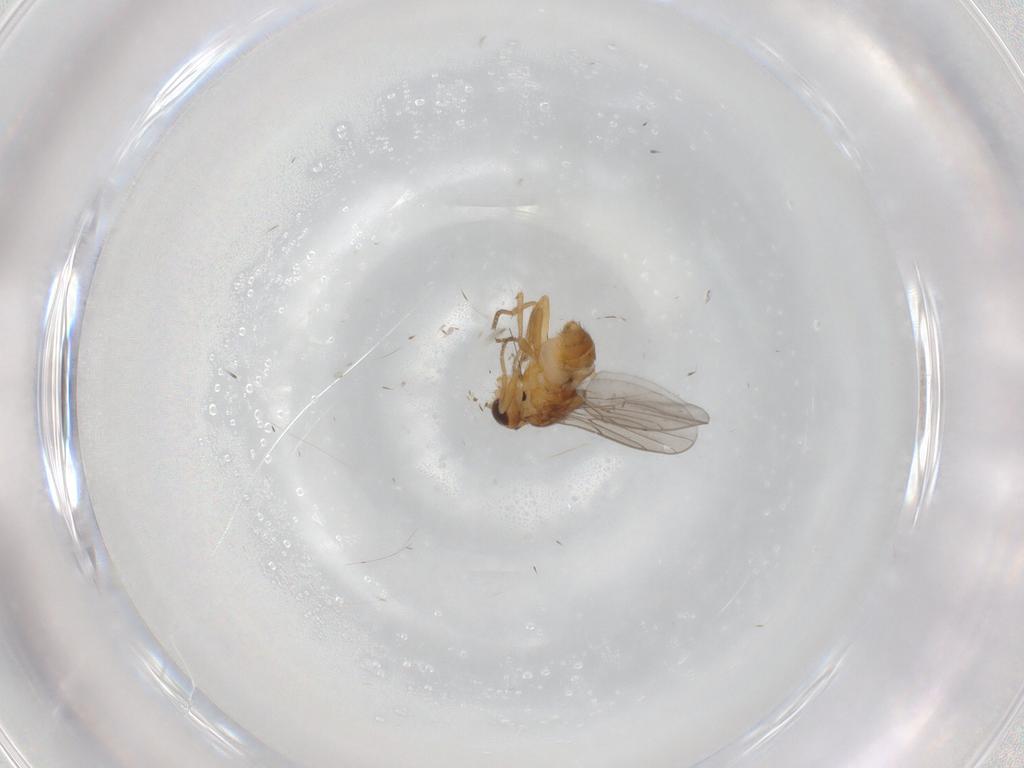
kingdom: Animalia
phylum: Arthropoda
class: Insecta
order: Diptera
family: Chloropidae
